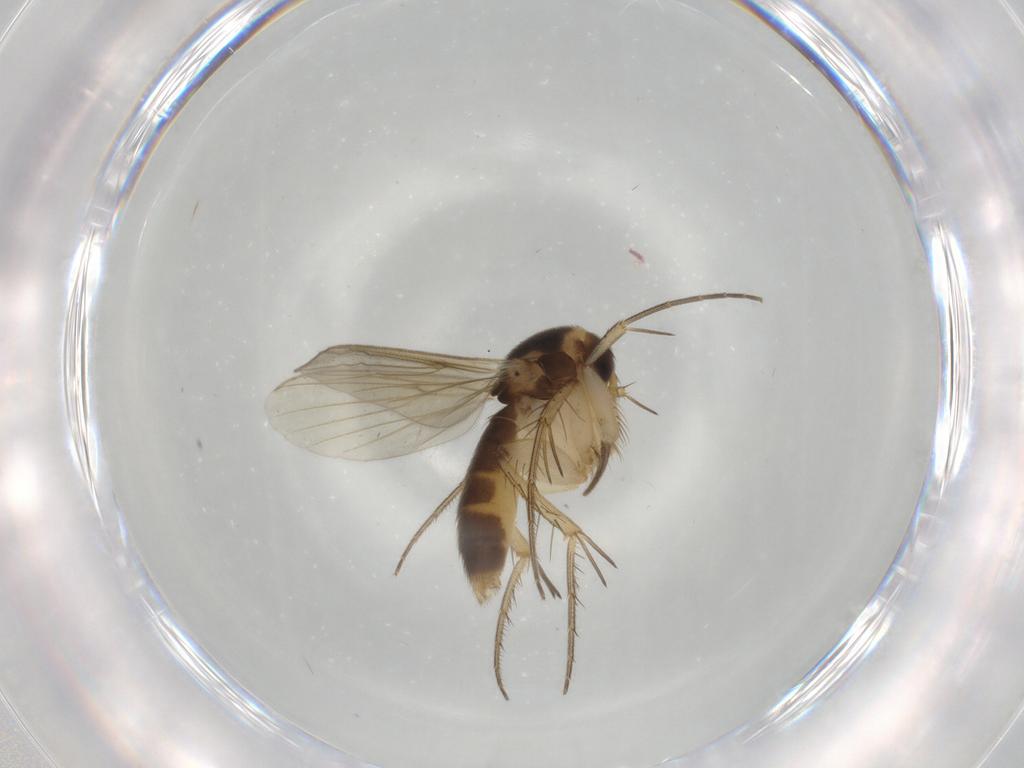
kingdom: Animalia
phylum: Arthropoda
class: Insecta
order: Diptera
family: Mycetophilidae
